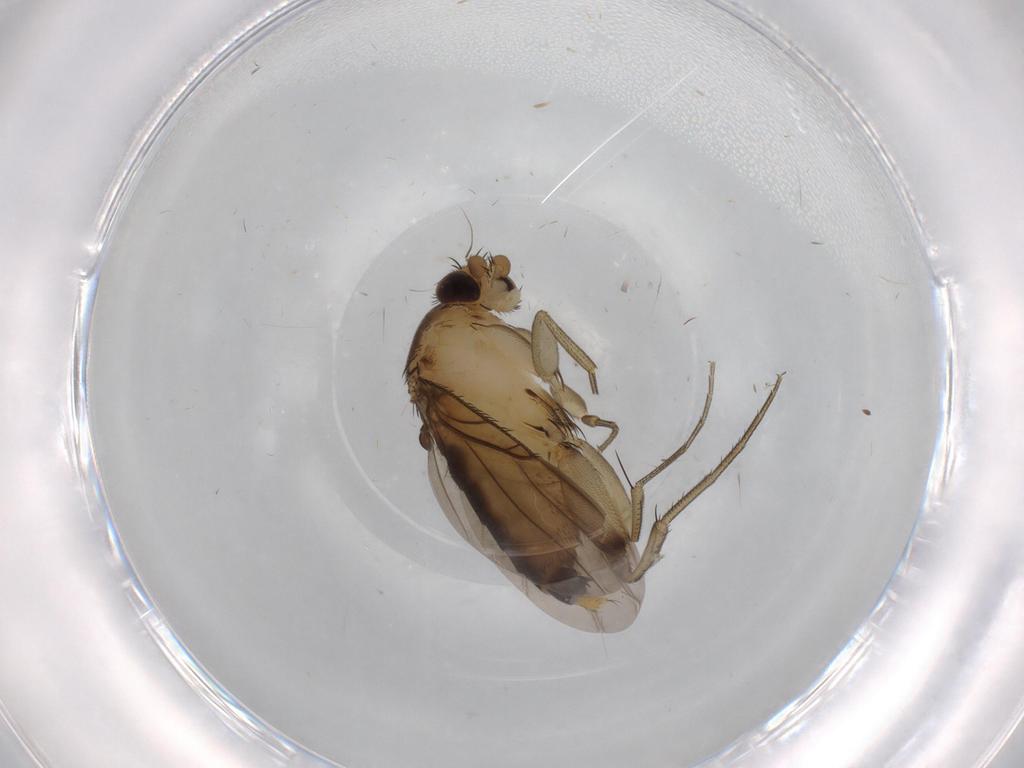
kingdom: Animalia
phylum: Arthropoda
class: Insecta
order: Diptera
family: Phoridae
